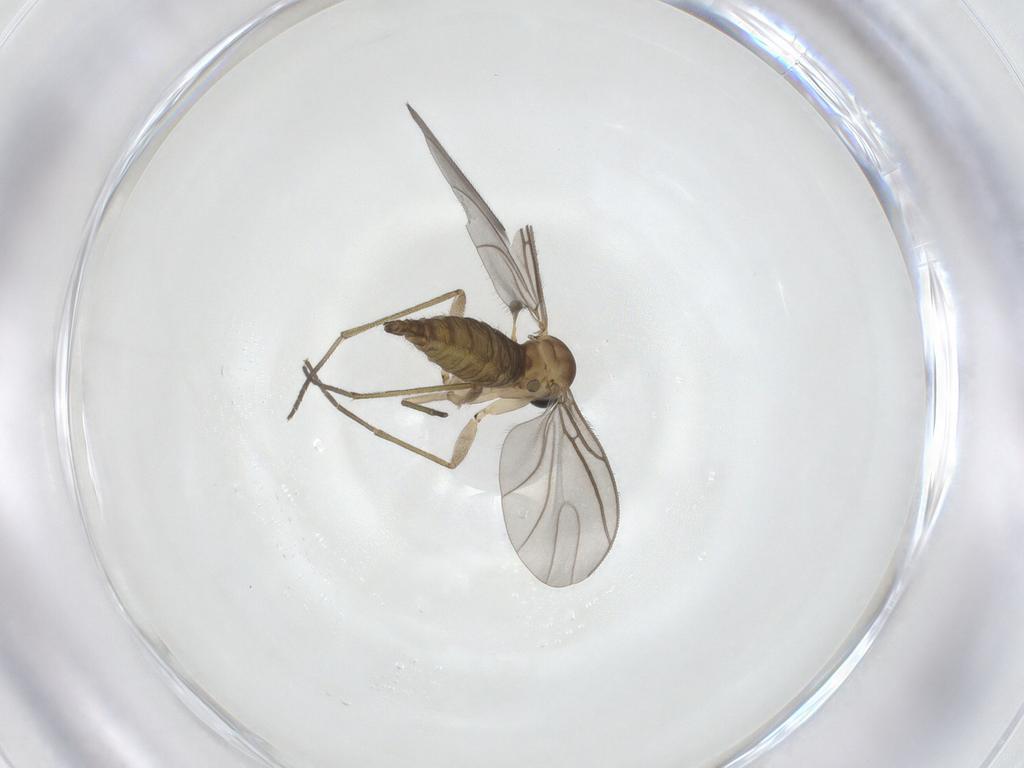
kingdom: Animalia
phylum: Arthropoda
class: Insecta
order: Diptera
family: Sciaridae
